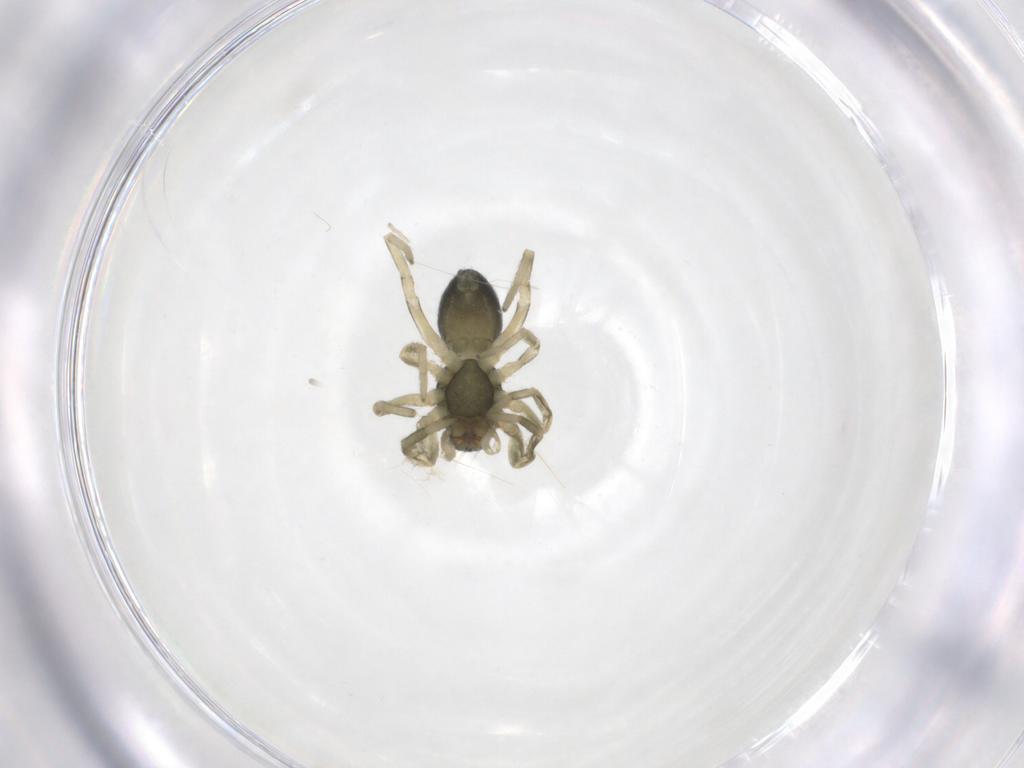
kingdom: Animalia
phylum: Arthropoda
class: Arachnida
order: Araneae
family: Trachelidae
